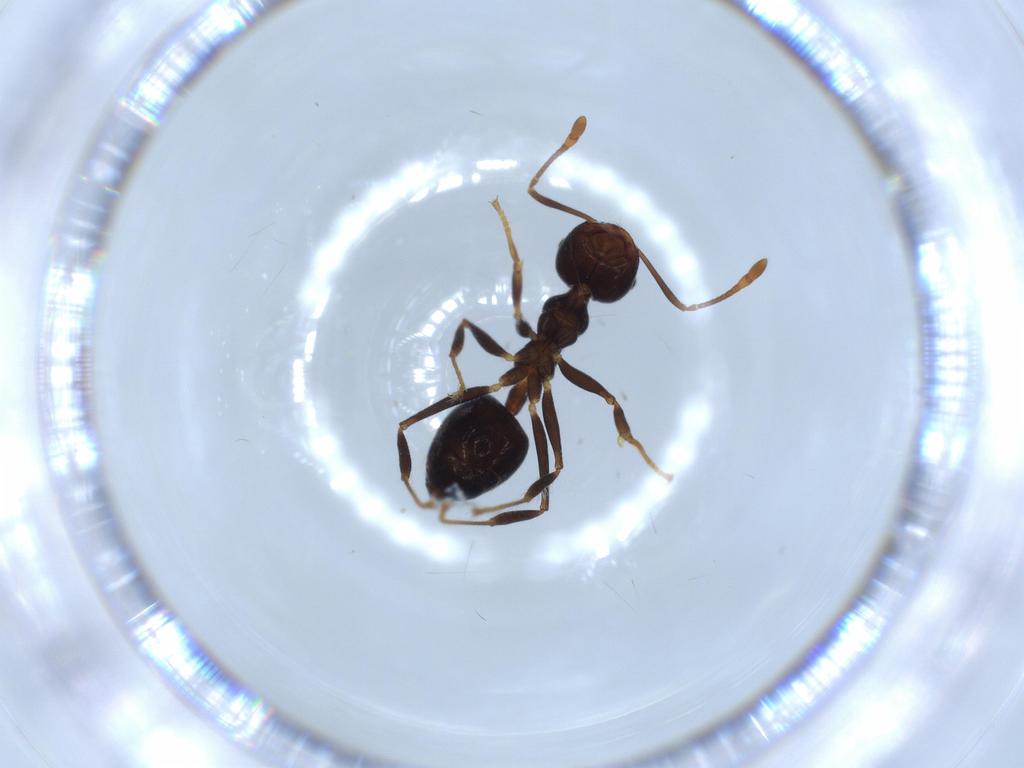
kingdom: Animalia
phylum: Arthropoda
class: Insecta
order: Hymenoptera
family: Formicidae
